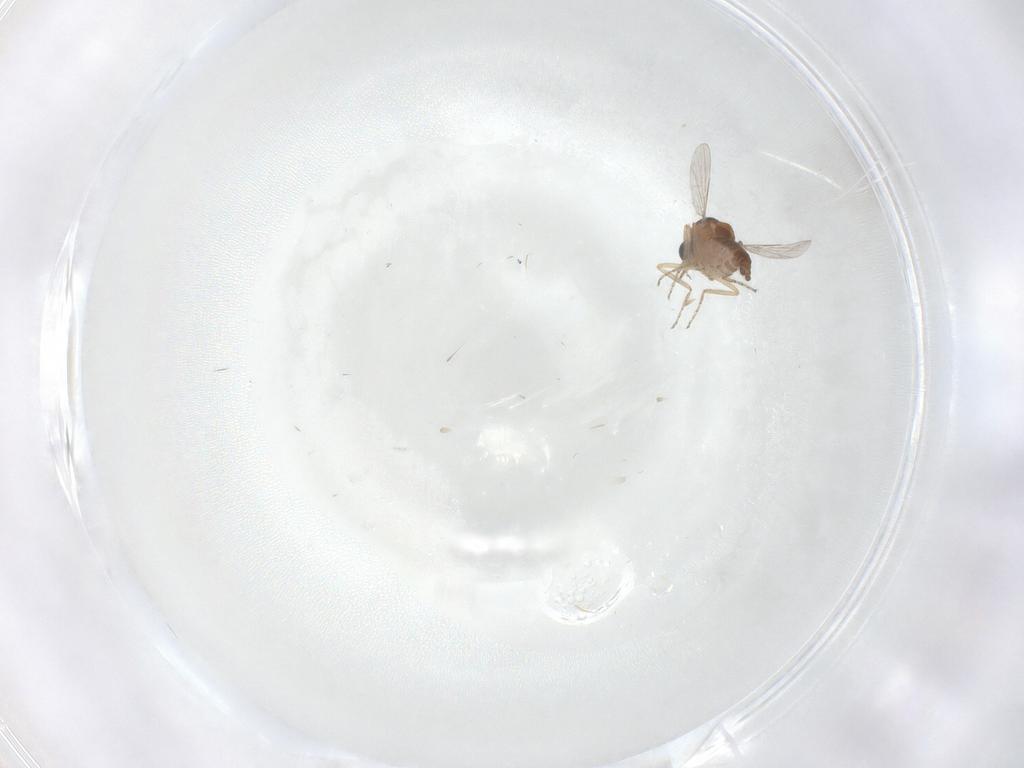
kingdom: Animalia
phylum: Arthropoda
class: Insecta
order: Diptera
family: Ceratopogonidae
